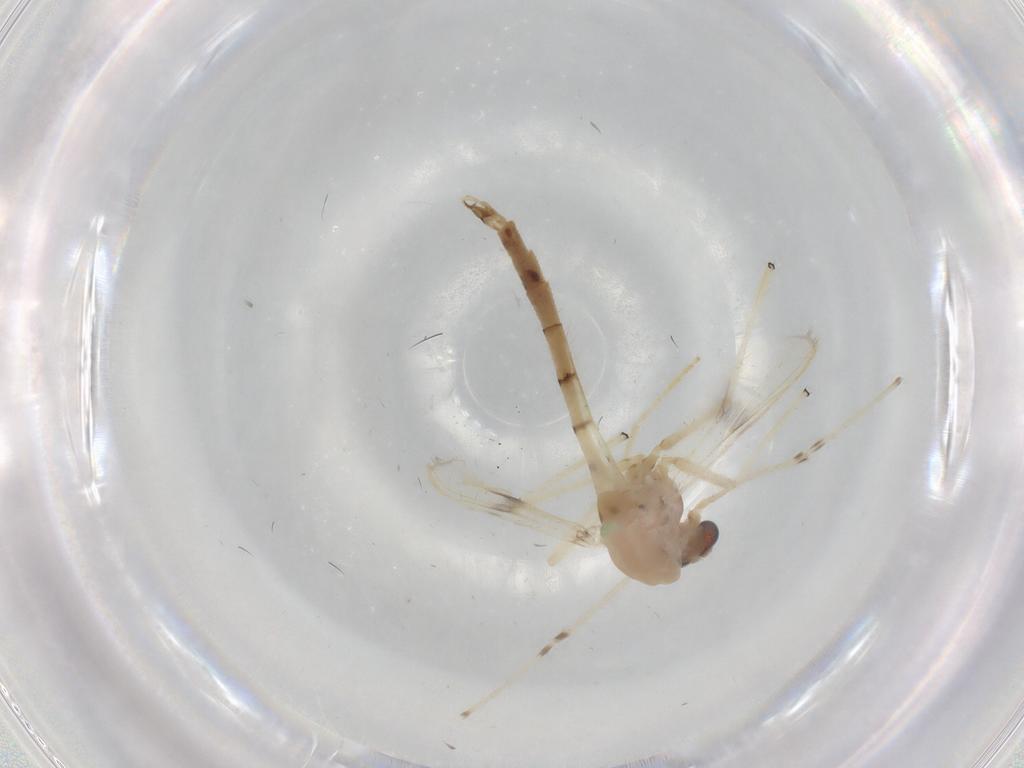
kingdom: Animalia
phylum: Arthropoda
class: Insecta
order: Diptera
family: Chironomidae
